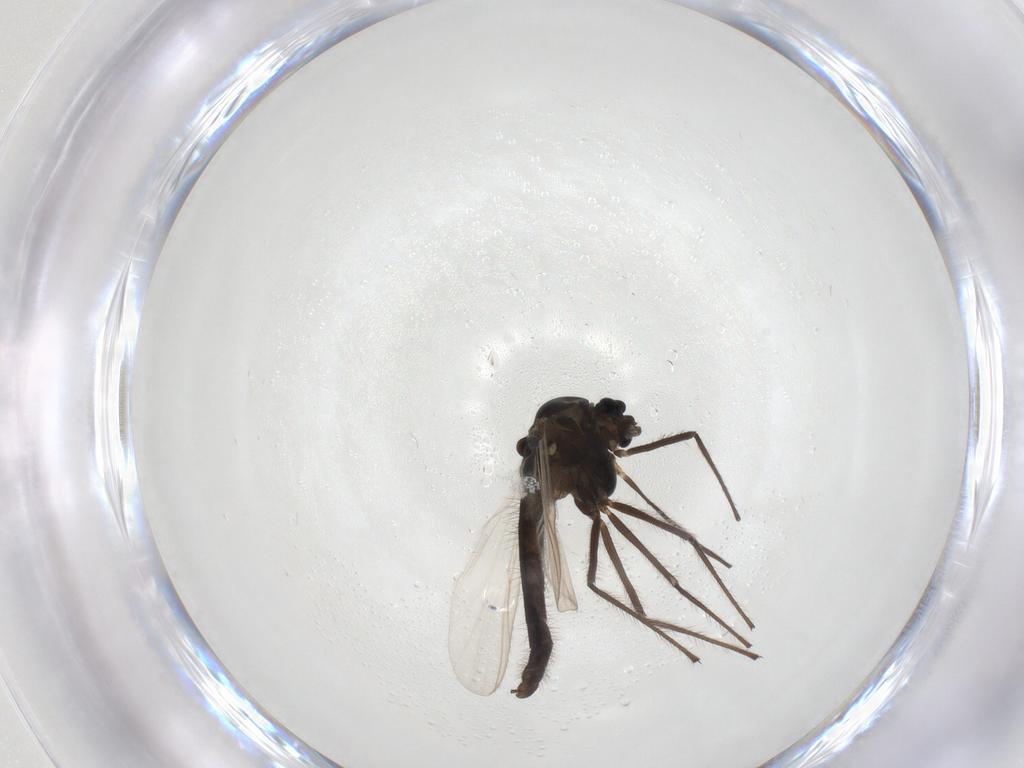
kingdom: Animalia
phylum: Arthropoda
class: Insecta
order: Diptera
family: Chironomidae
